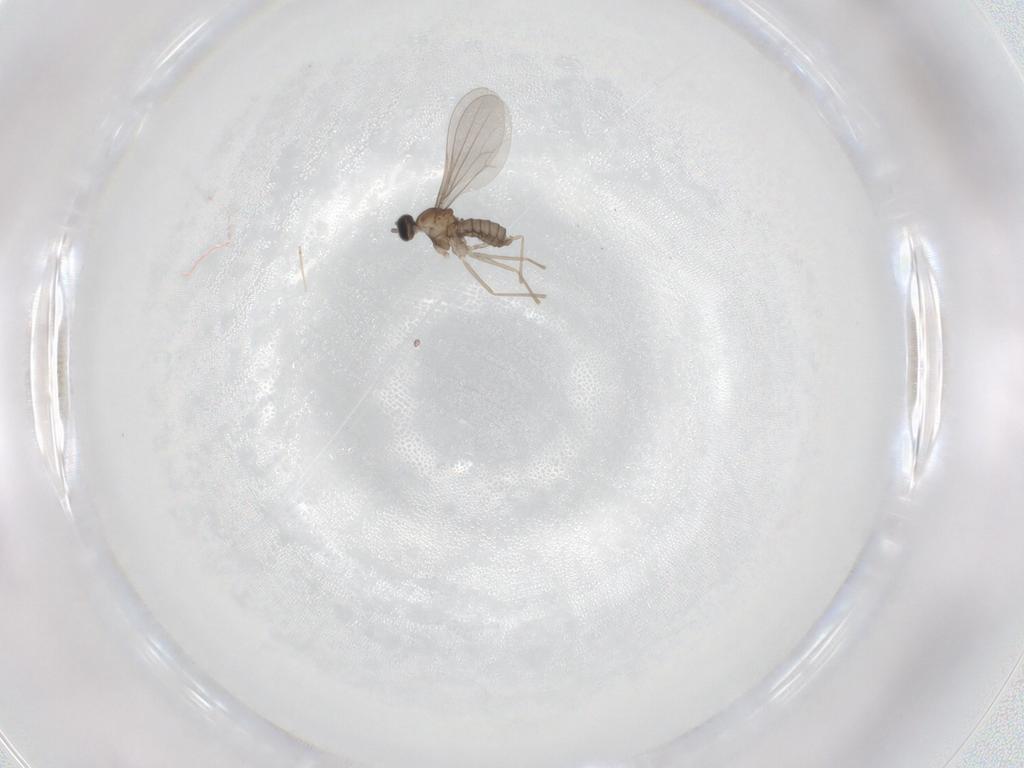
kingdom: Animalia
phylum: Arthropoda
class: Insecta
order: Diptera
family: Cecidomyiidae
